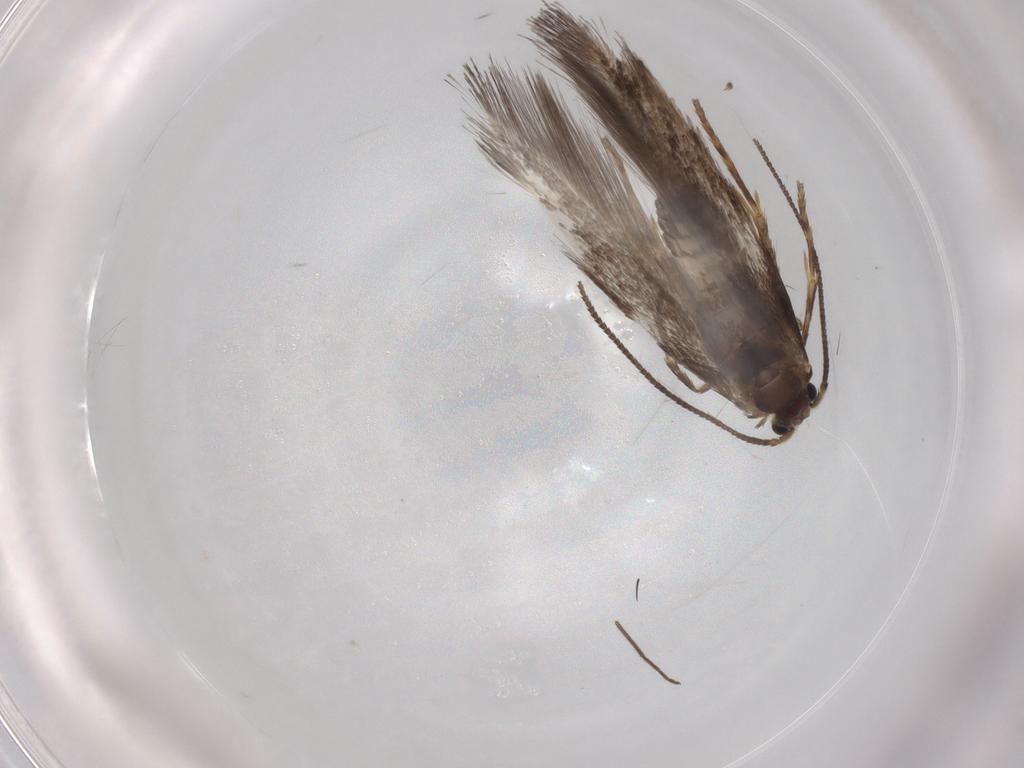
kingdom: Animalia
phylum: Arthropoda
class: Insecta
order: Lepidoptera
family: Nepticulidae
